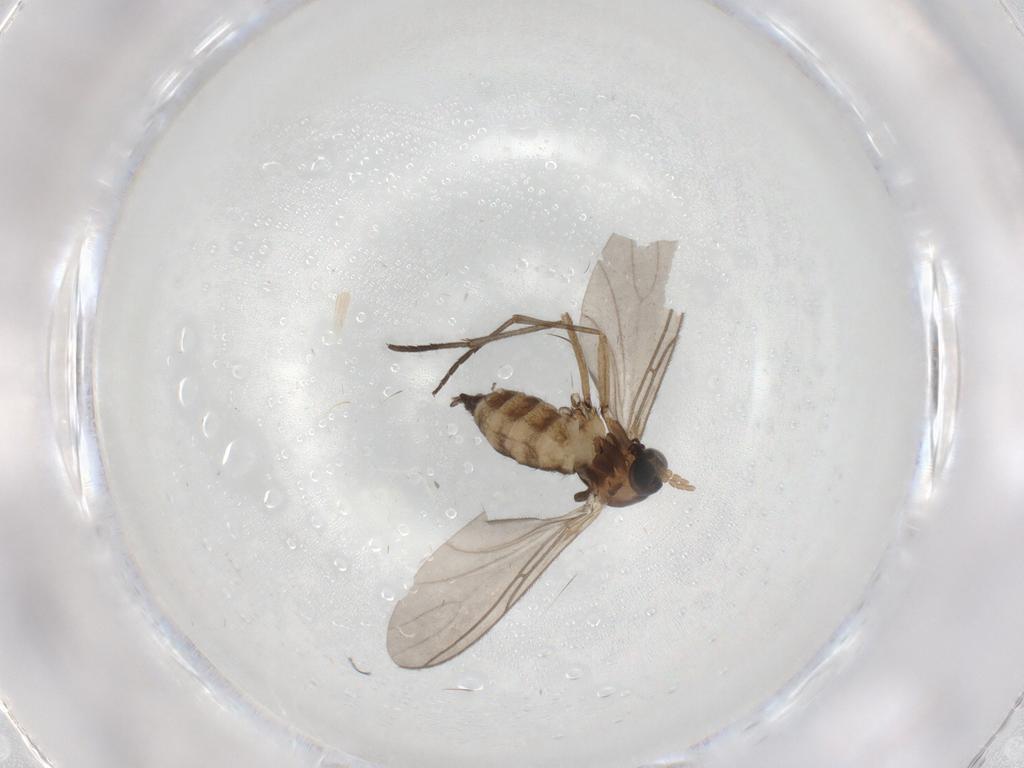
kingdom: Animalia
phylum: Arthropoda
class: Insecta
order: Diptera
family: Sciaridae
